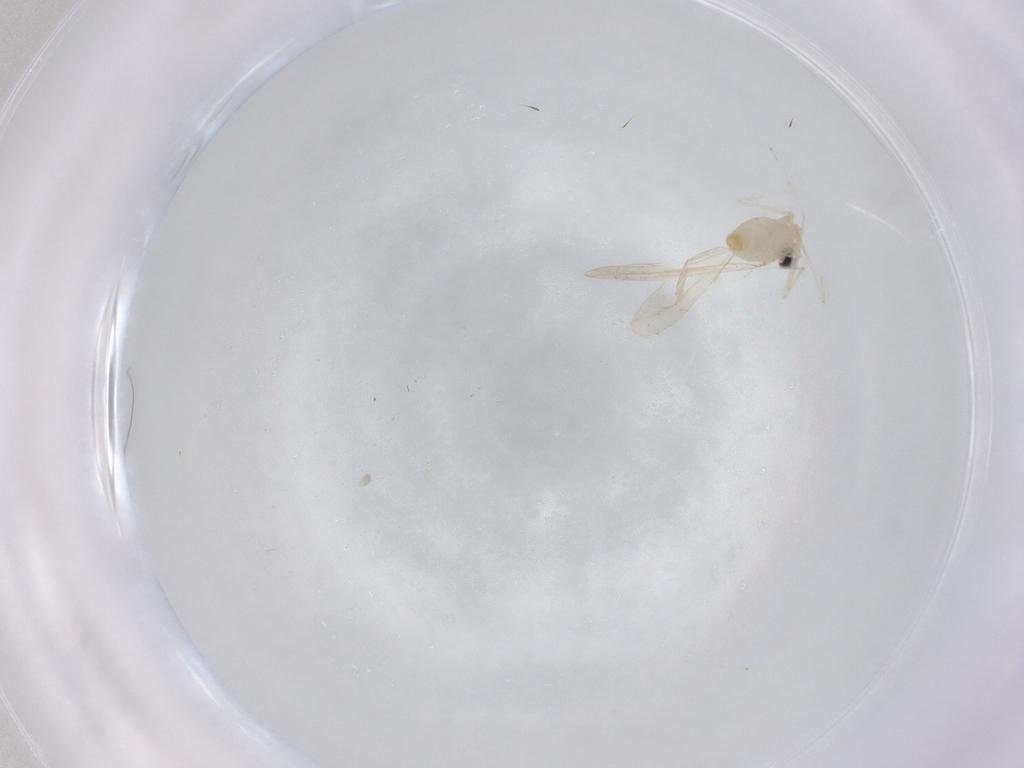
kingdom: Animalia
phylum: Arthropoda
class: Insecta
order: Diptera
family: Cecidomyiidae
